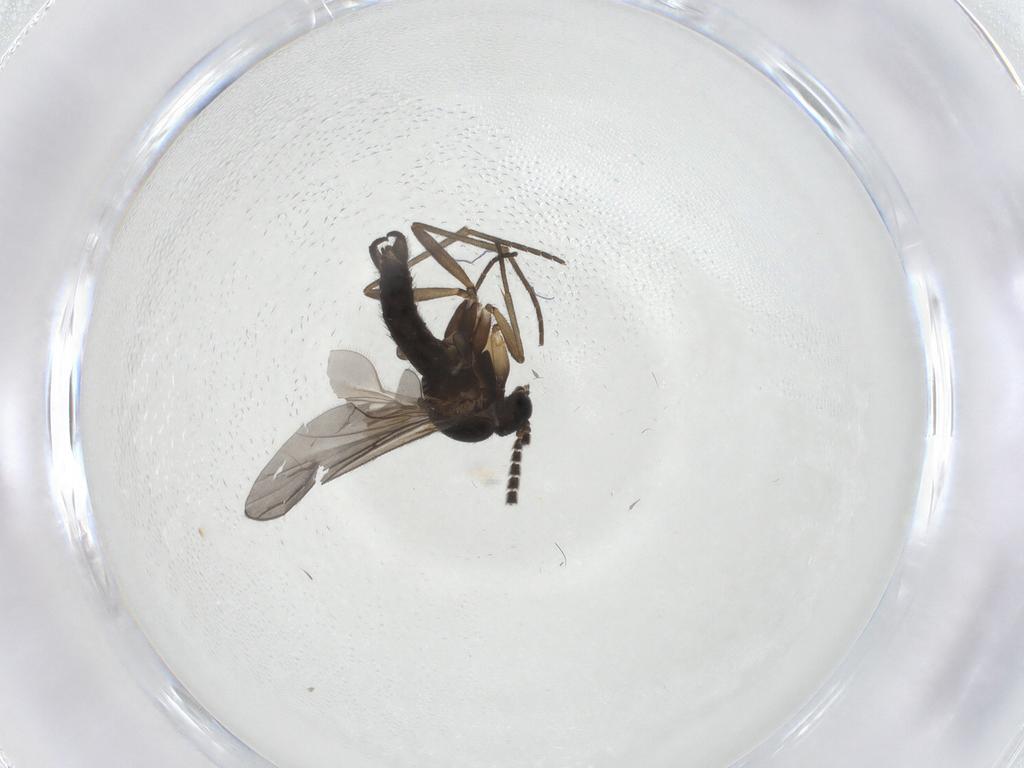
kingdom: Animalia
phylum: Arthropoda
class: Insecta
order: Diptera
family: Sciaridae
